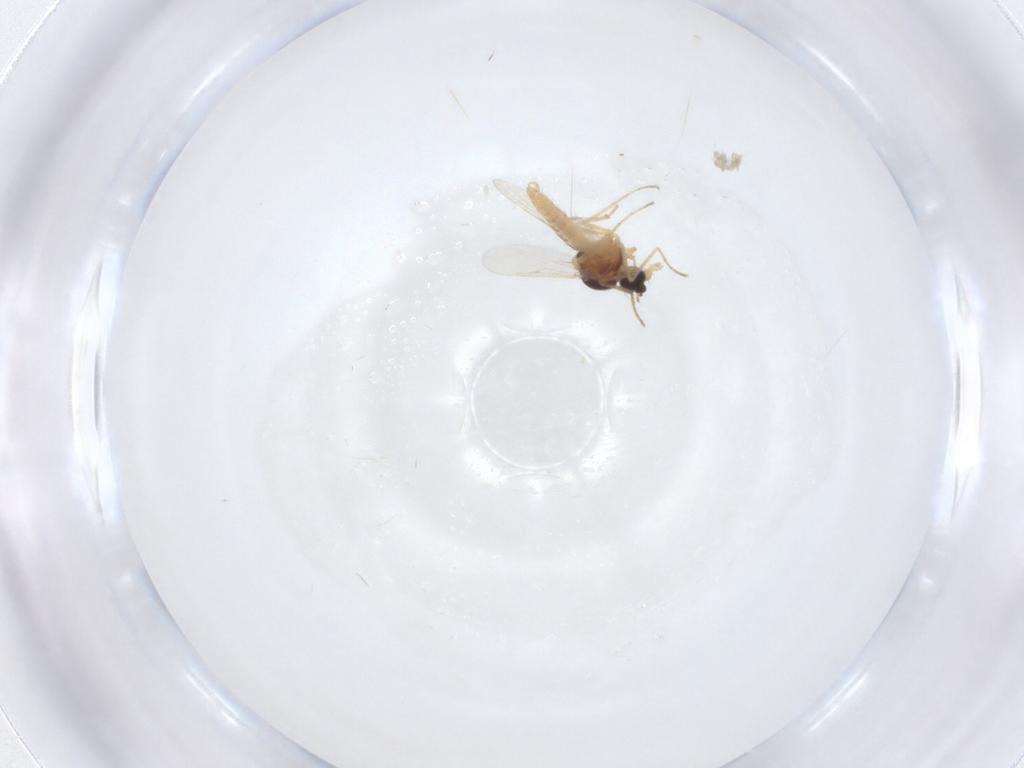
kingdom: Animalia
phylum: Arthropoda
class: Insecta
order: Diptera
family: Ceratopogonidae
